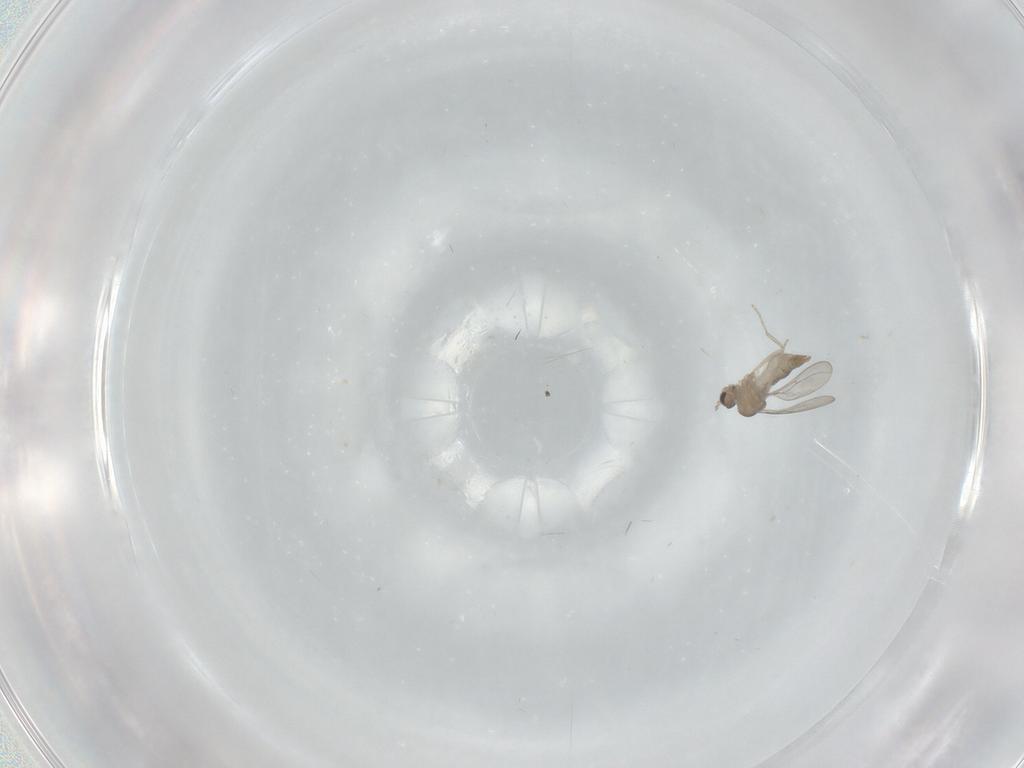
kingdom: Animalia
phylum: Arthropoda
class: Insecta
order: Diptera
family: Cecidomyiidae
